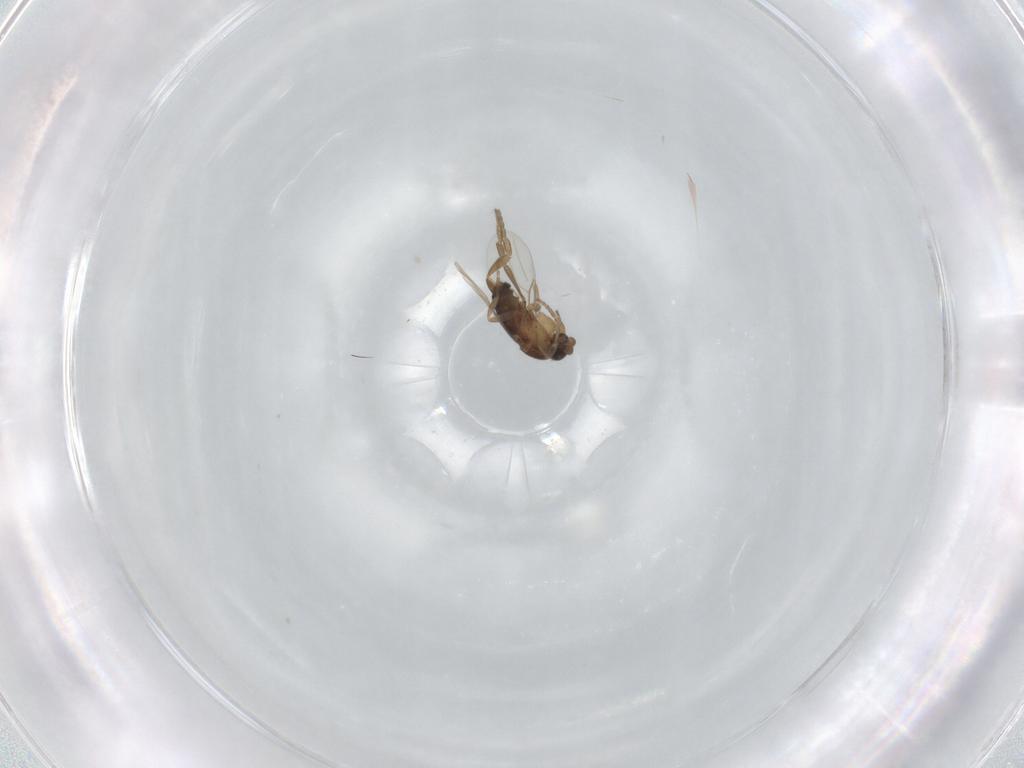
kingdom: Animalia
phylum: Arthropoda
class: Insecta
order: Diptera
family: Phoridae
